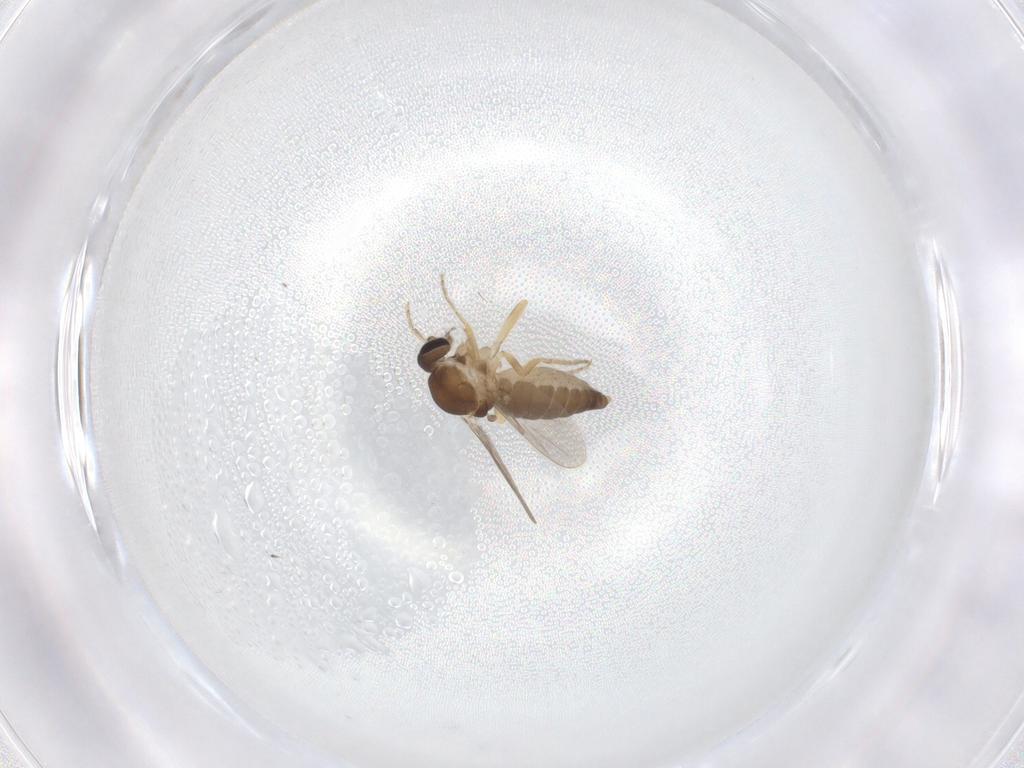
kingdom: Animalia
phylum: Arthropoda
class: Insecta
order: Diptera
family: Ceratopogonidae
